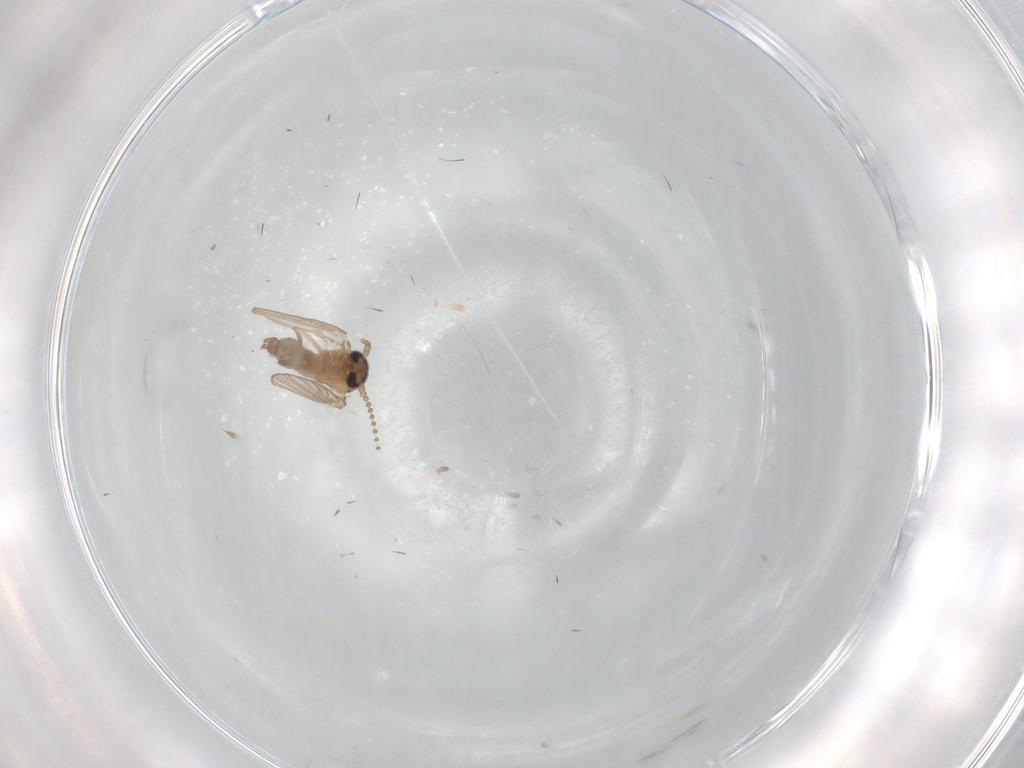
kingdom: Animalia
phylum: Arthropoda
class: Insecta
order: Diptera
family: Psychodidae
